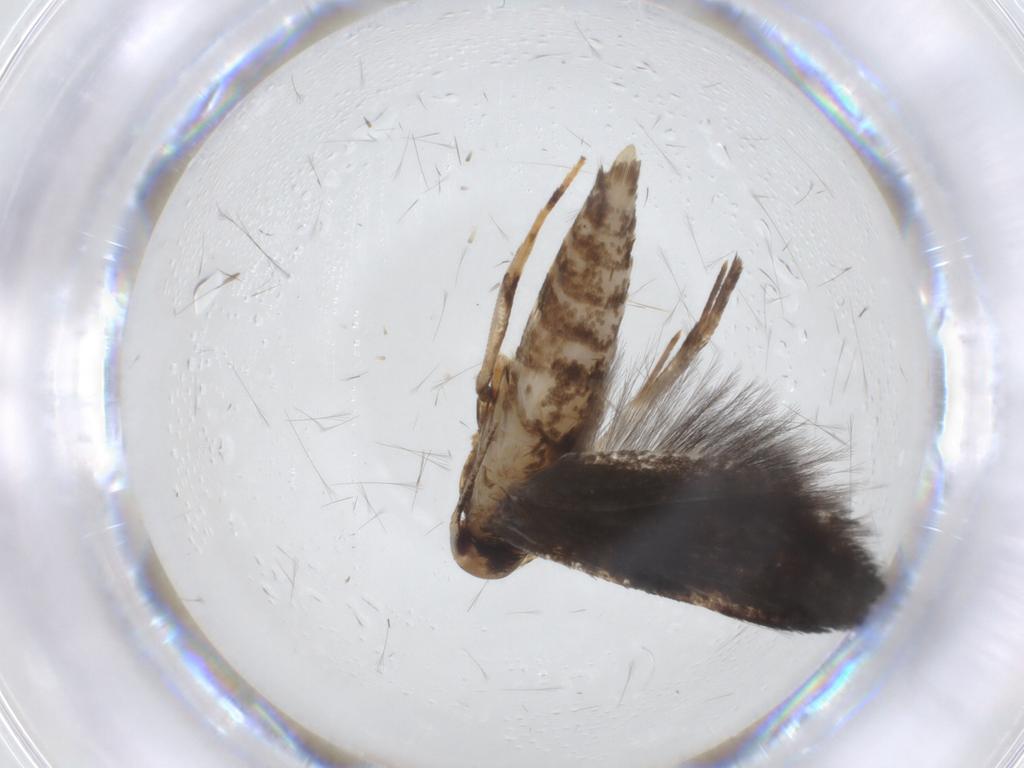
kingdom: Animalia
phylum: Arthropoda
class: Insecta
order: Lepidoptera
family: Cosmopterigidae
